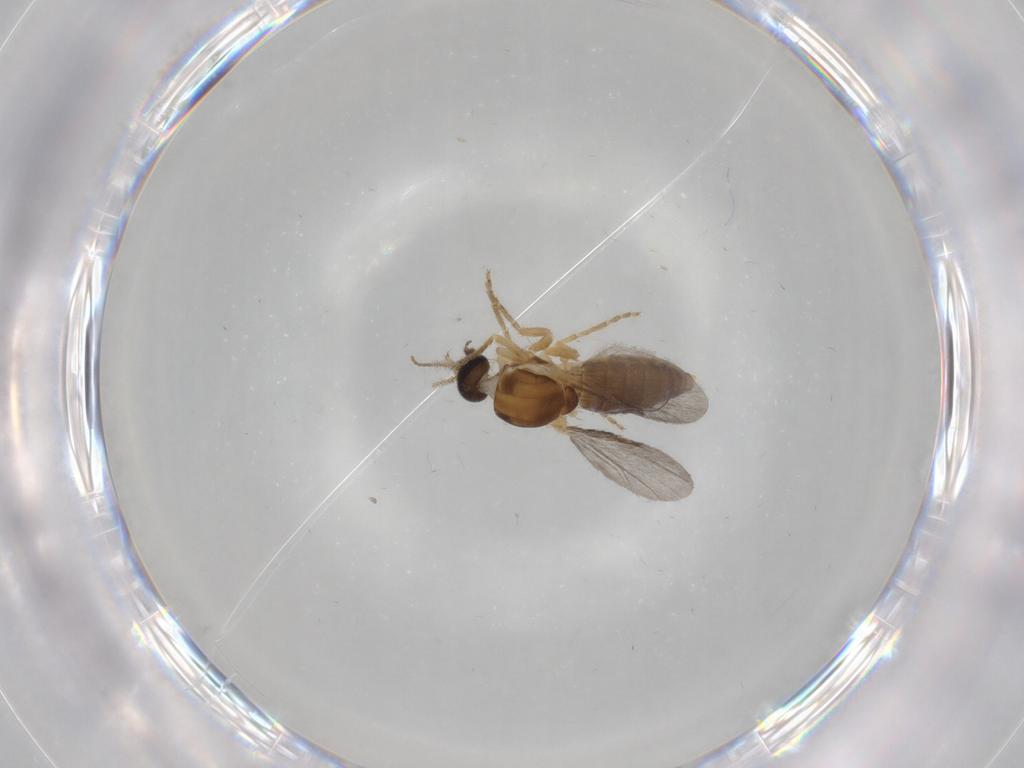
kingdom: Animalia
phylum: Arthropoda
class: Insecta
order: Diptera
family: Ceratopogonidae
